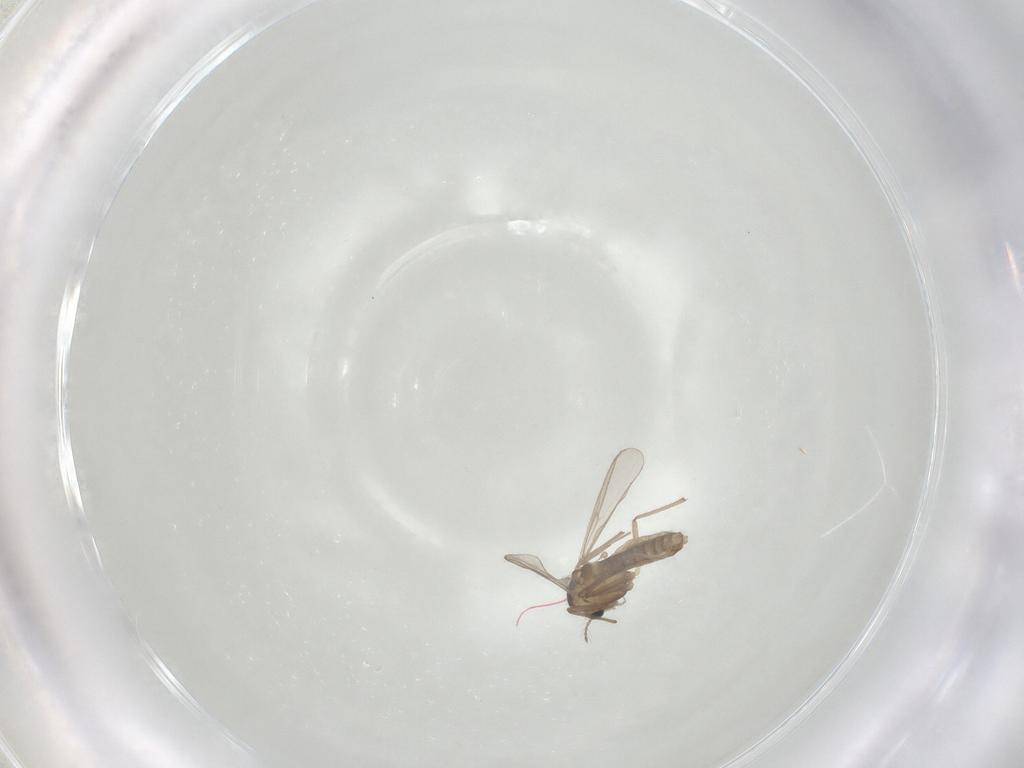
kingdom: Animalia
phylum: Arthropoda
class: Insecta
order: Diptera
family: Chironomidae
